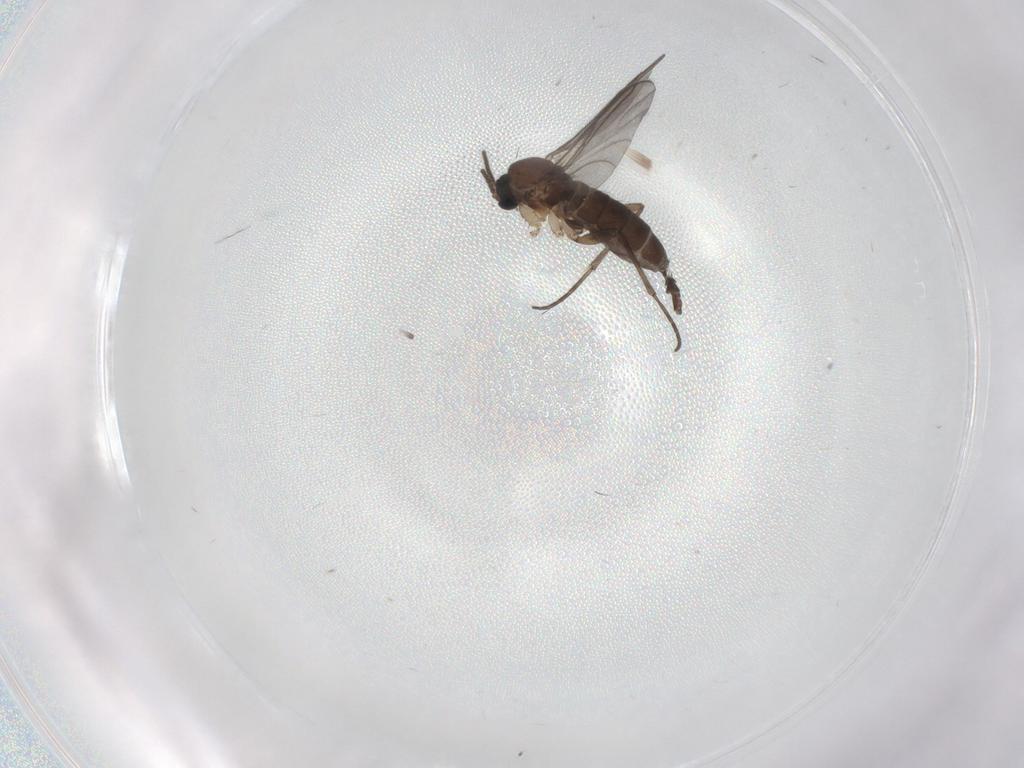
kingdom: Animalia
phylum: Arthropoda
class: Insecta
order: Diptera
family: Sciaridae
